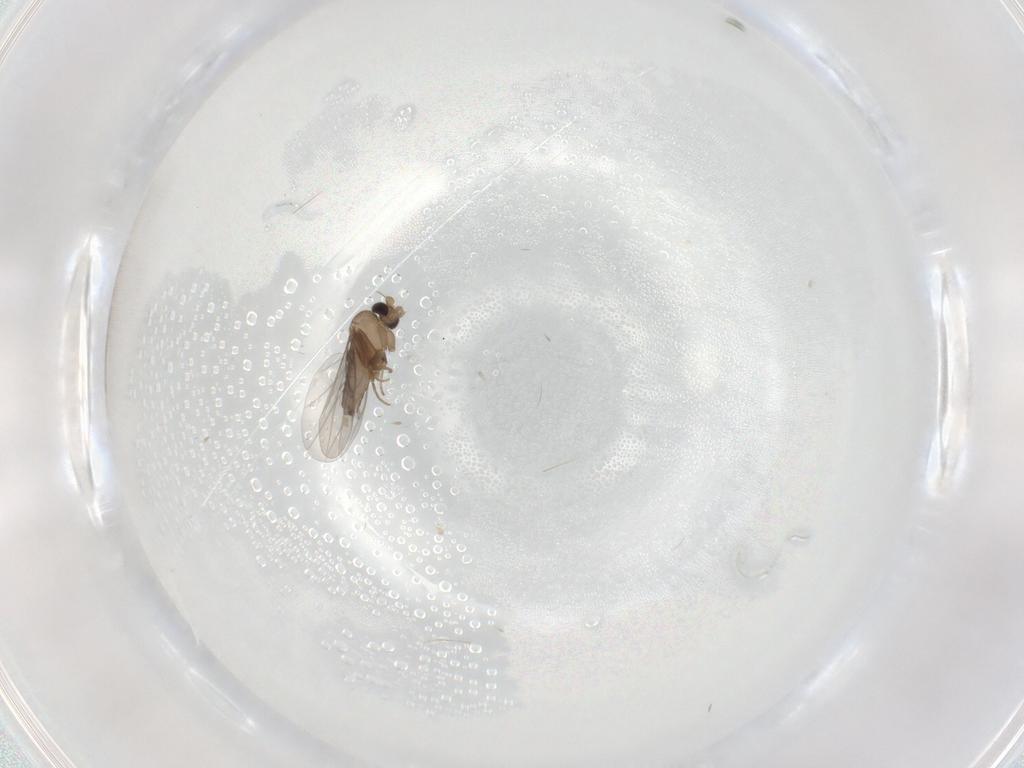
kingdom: Animalia
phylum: Arthropoda
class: Insecta
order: Diptera
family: Cecidomyiidae
